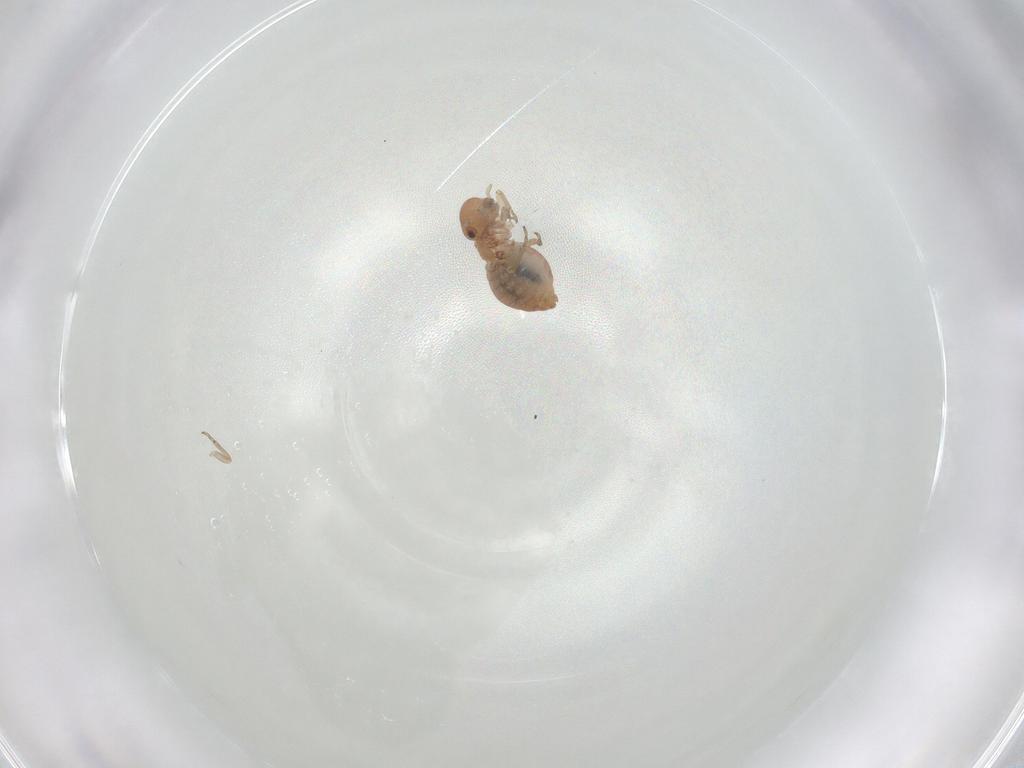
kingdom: Animalia
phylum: Arthropoda
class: Insecta
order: Psocodea
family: Peripsocidae
